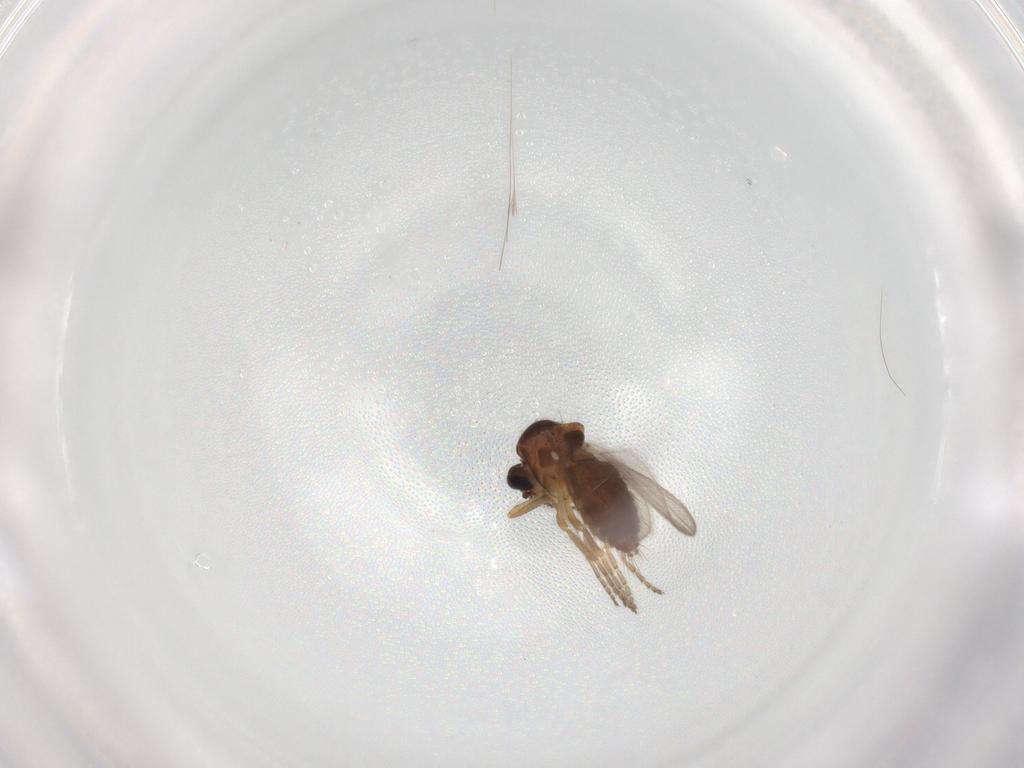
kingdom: Animalia
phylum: Arthropoda
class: Insecta
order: Diptera
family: Ceratopogonidae
